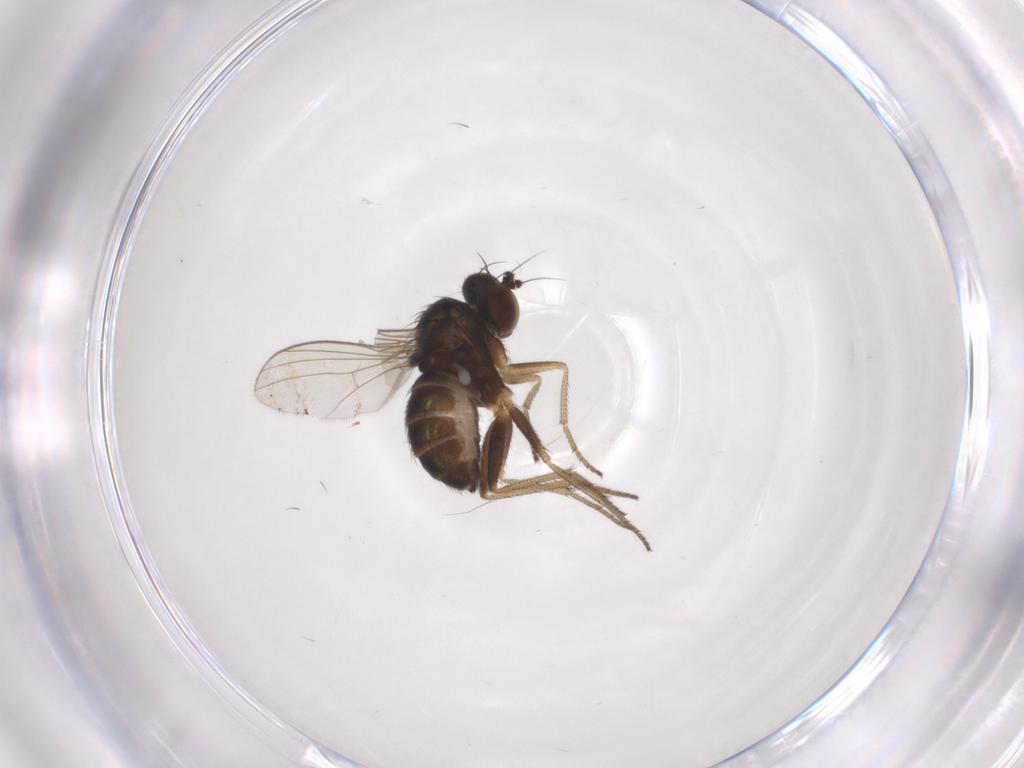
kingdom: Animalia
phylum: Arthropoda
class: Insecta
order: Diptera
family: Dolichopodidae
